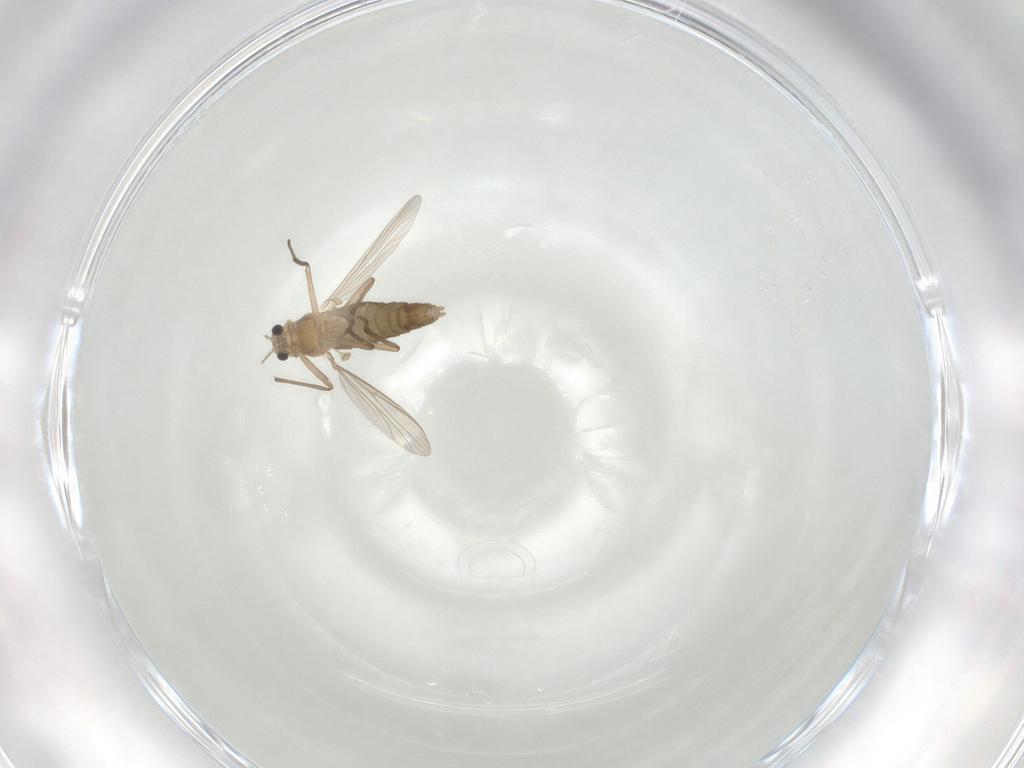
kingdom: Animalia
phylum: Arthropoda
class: Insecta
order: Diptera
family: Chironomidae
